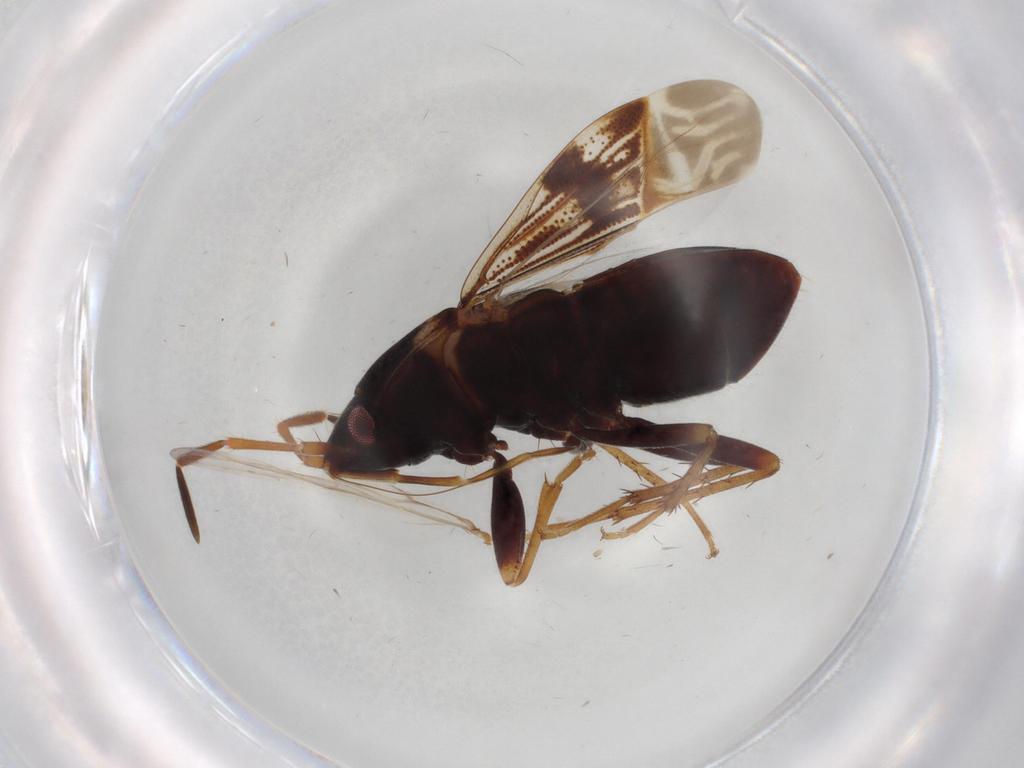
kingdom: Animalia
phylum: Arthropoda
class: Insecta
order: Hemiptera
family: Rhyparochromidae
